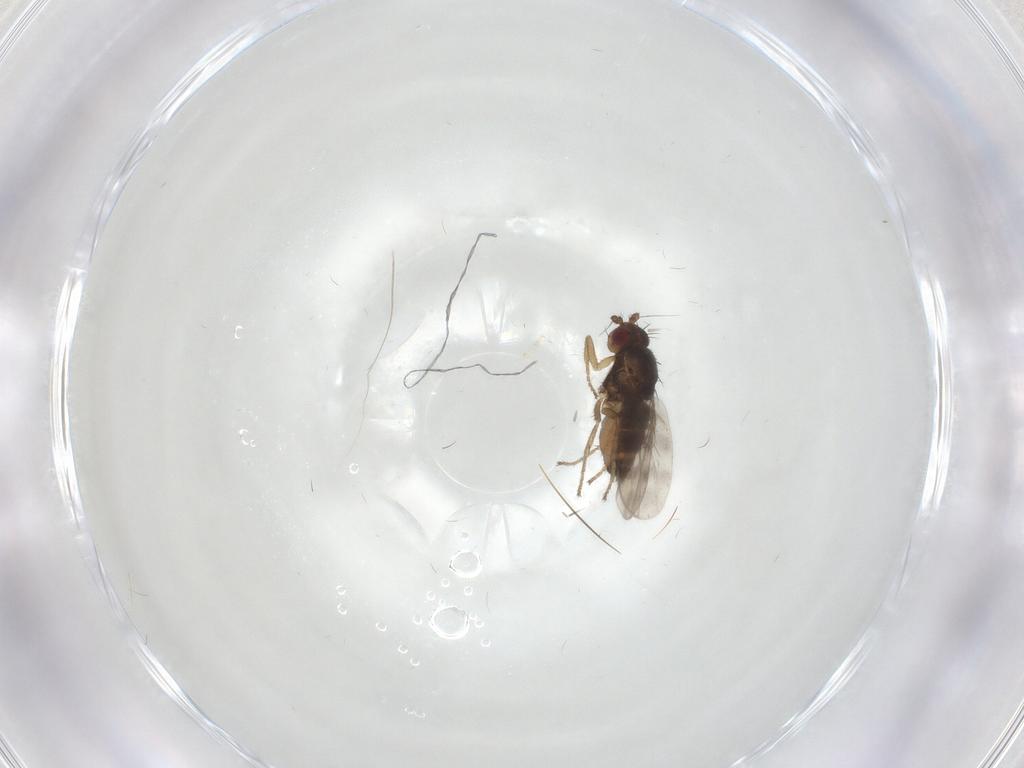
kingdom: Animalia
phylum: Arthropoda
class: Insecta
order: Diptera
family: Sphaeroceridae
